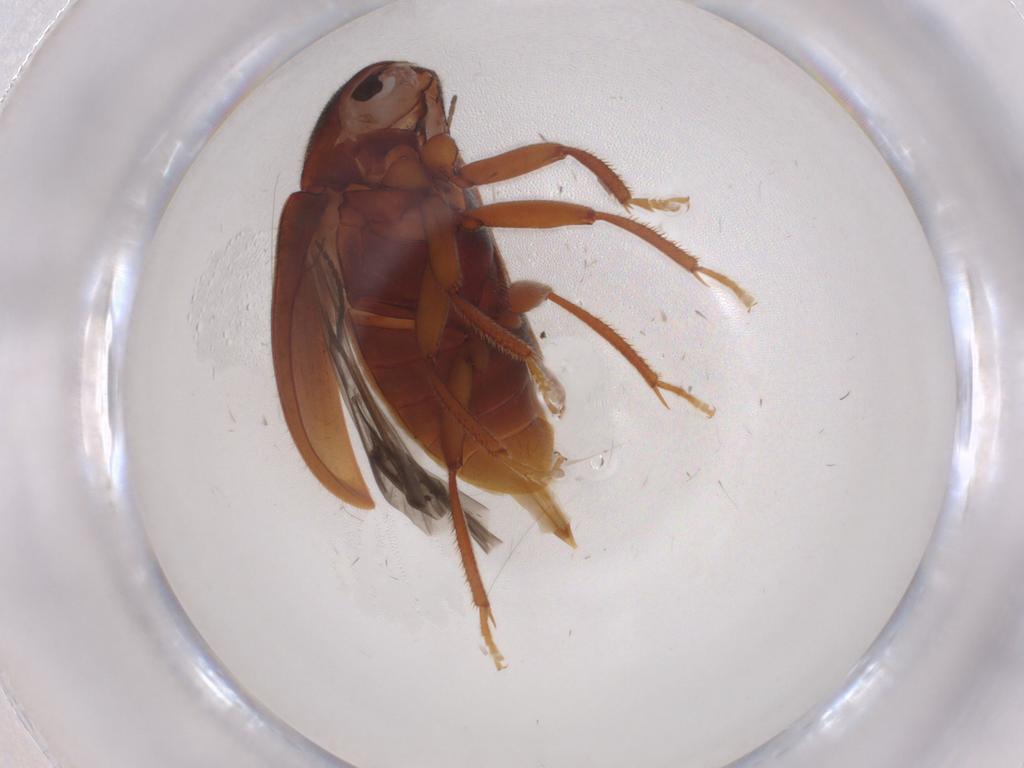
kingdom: Animalia
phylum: Arthropoda
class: Insecta
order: Coleoptera
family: Ptilodactylidae
